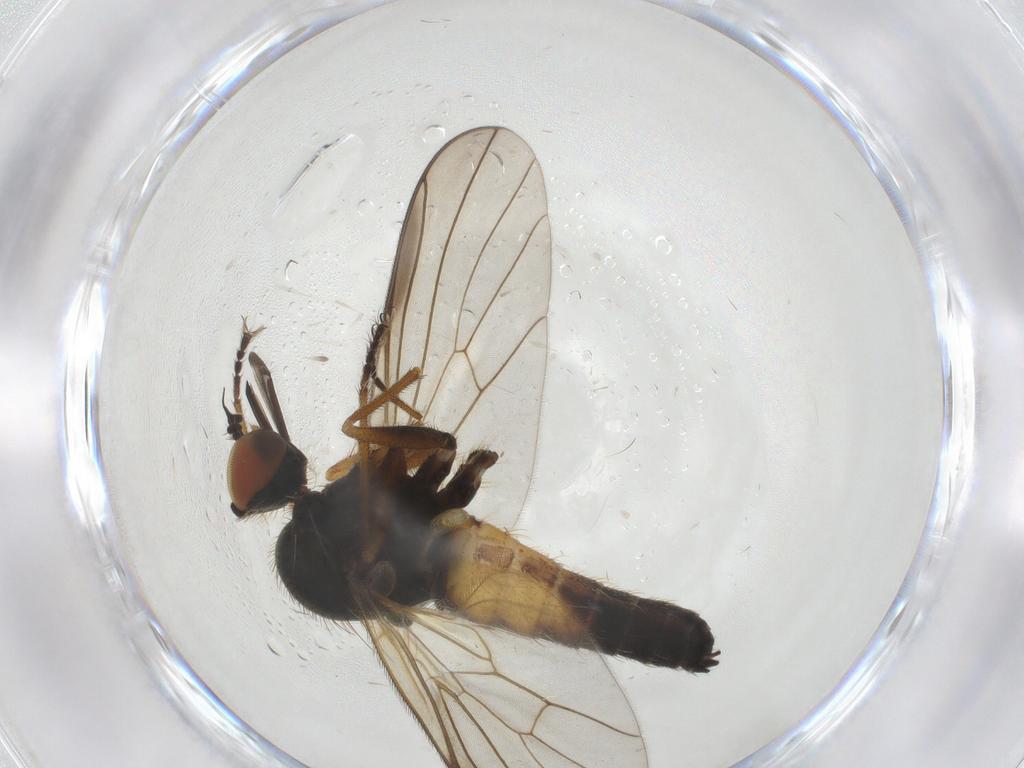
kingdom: Animalia
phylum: Arthropoda
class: Insecta
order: Diptera
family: Empididae
